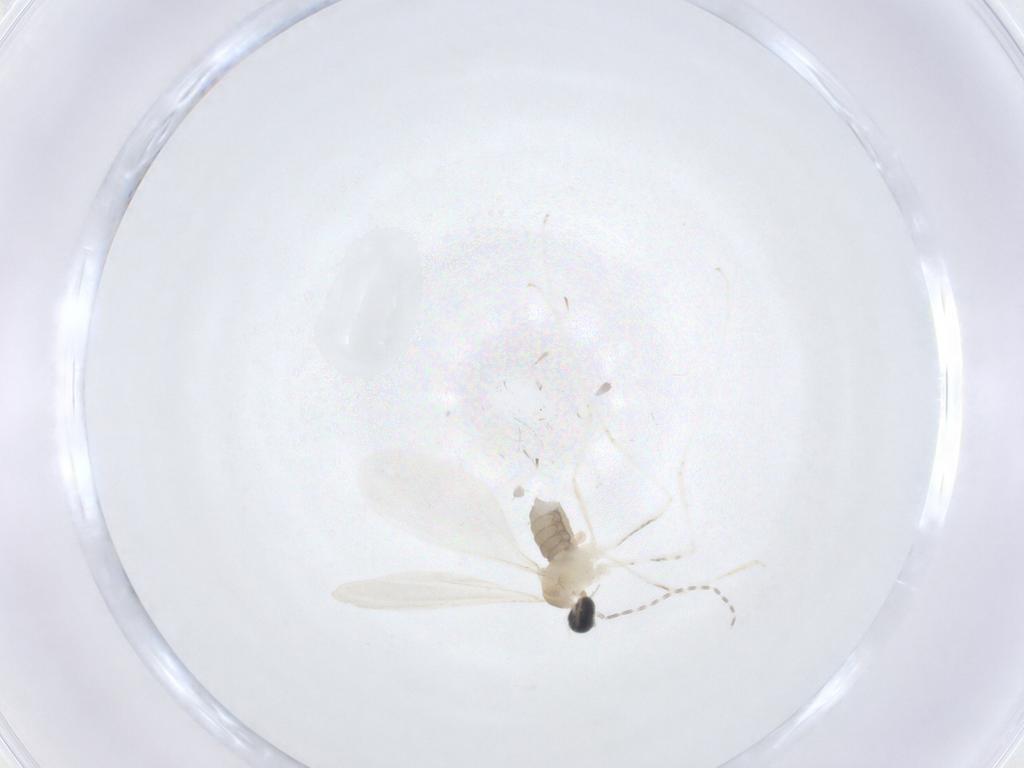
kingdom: Animalia
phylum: Arthropoda
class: Insecta
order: Diptera
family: Cecidomyiidae
